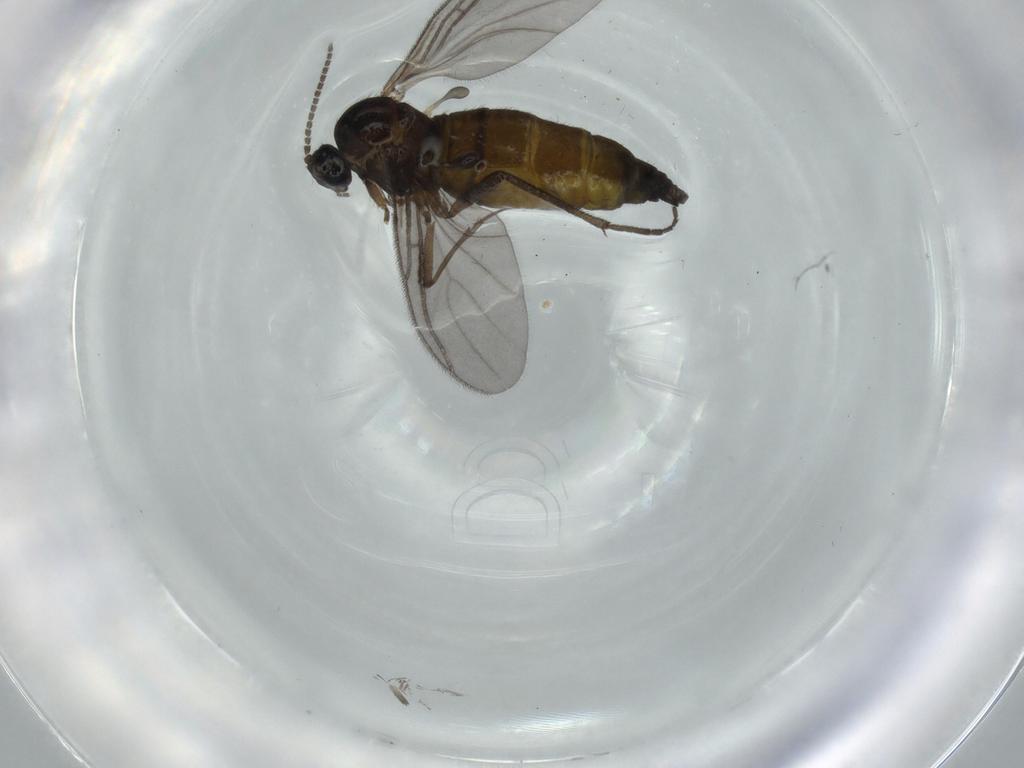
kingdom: Animalia
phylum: Arthropoda
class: Insecta
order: Diptera
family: Sciaridae
